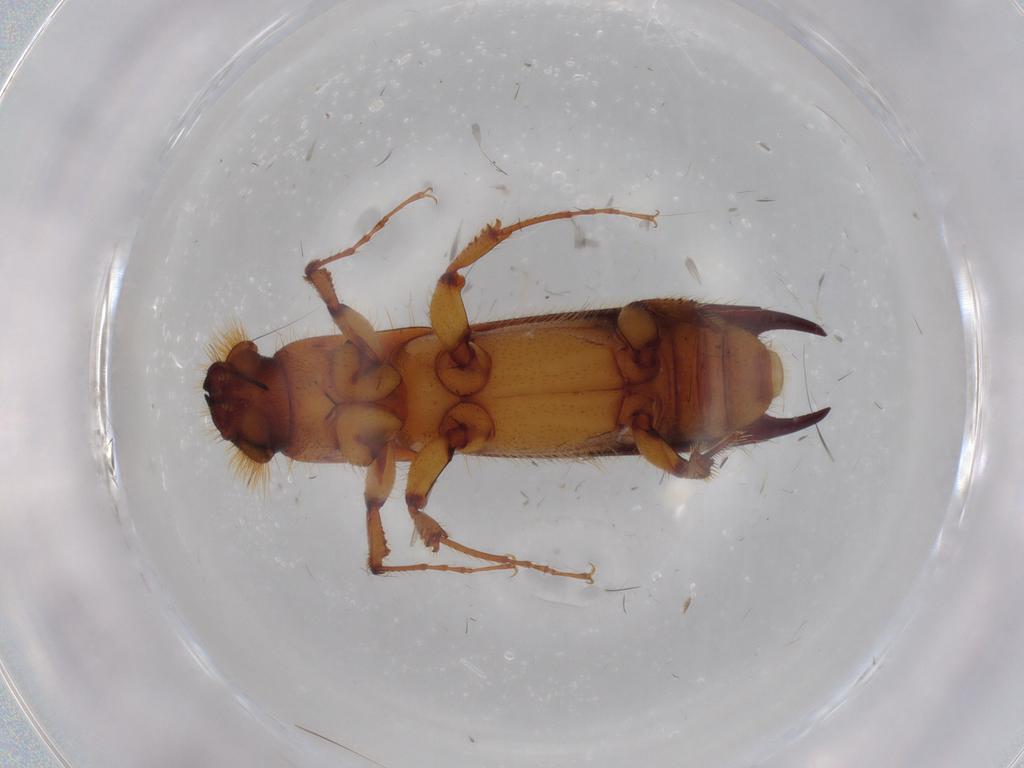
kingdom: Animalia
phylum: Arthropoda
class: Insecta
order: Coleoptera
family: Curculionidae
